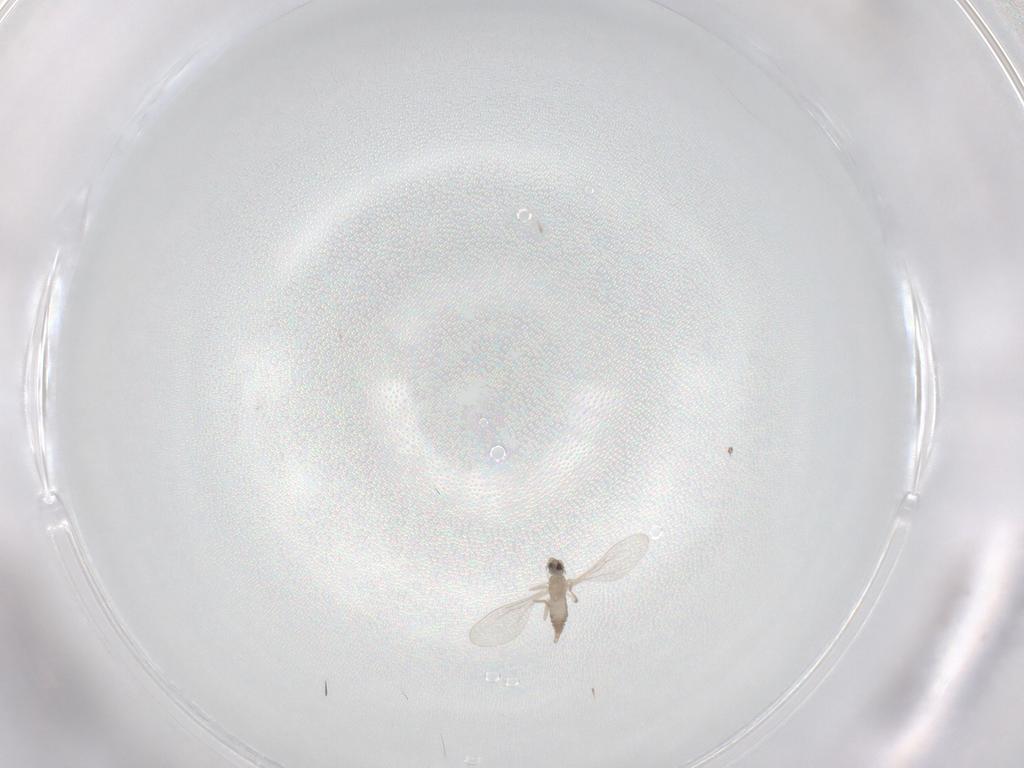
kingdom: Animalia
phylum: Arthropoda
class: Insecta
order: Diptera
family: Cecidomyiidae
